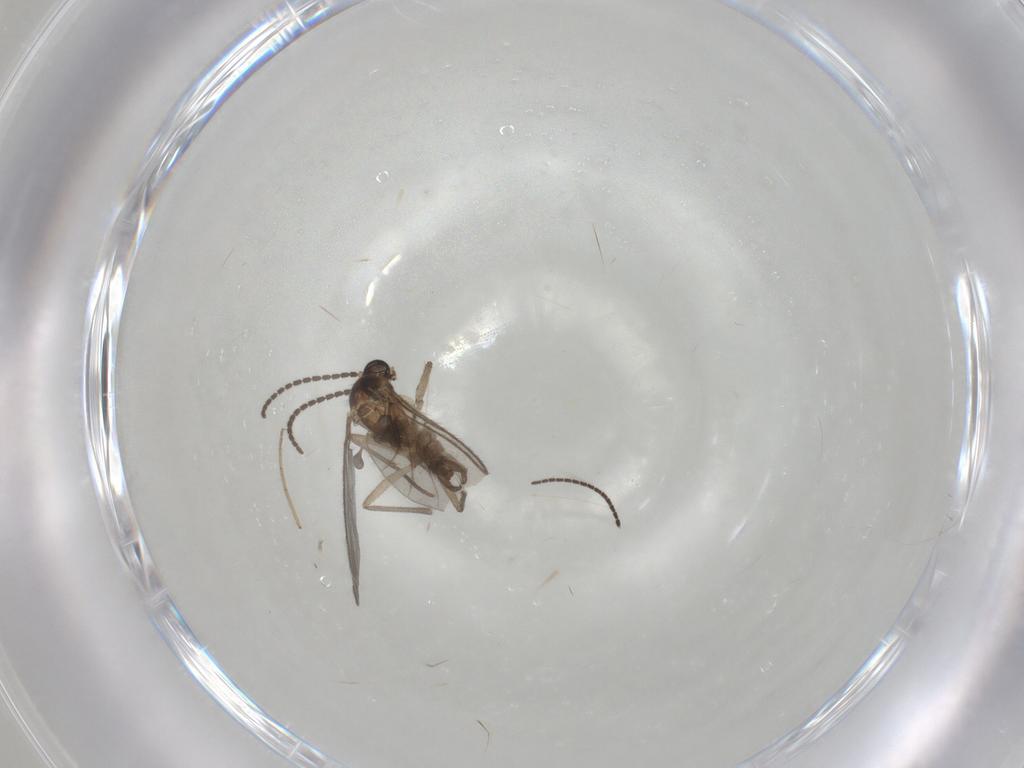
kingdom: Animalia
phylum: Arthropoda
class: Insecta
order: Diptera
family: Sciaridae
